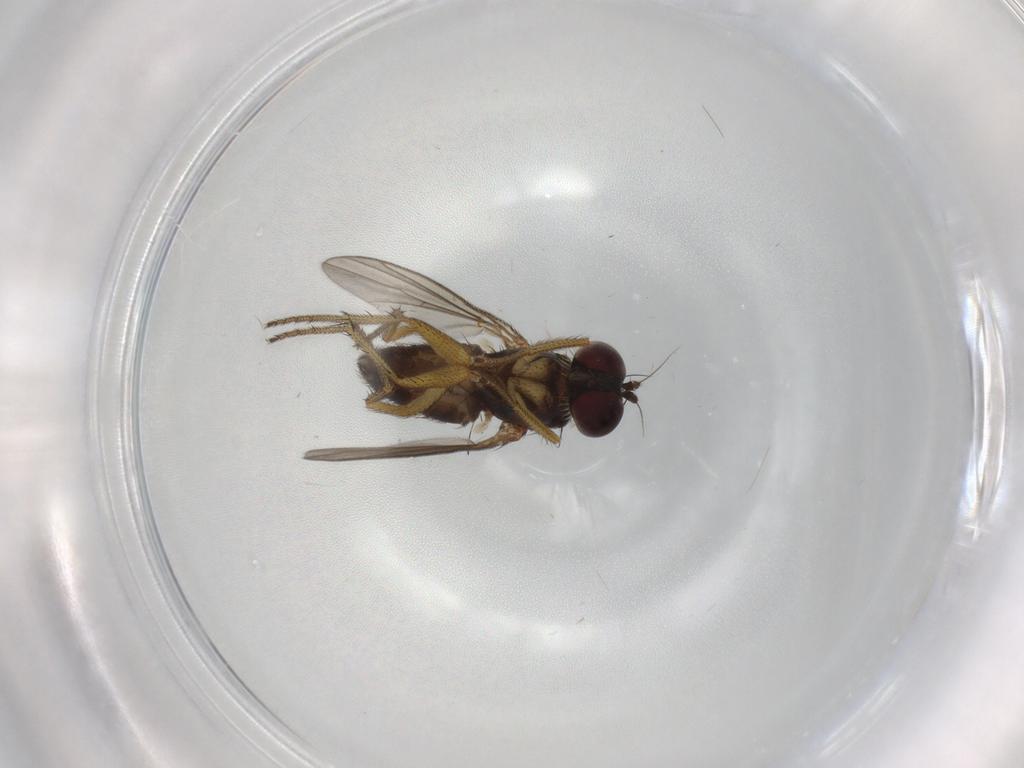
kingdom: Animalia
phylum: Arthropoda
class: Insecta
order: Diptera
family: Dolichopodidae
